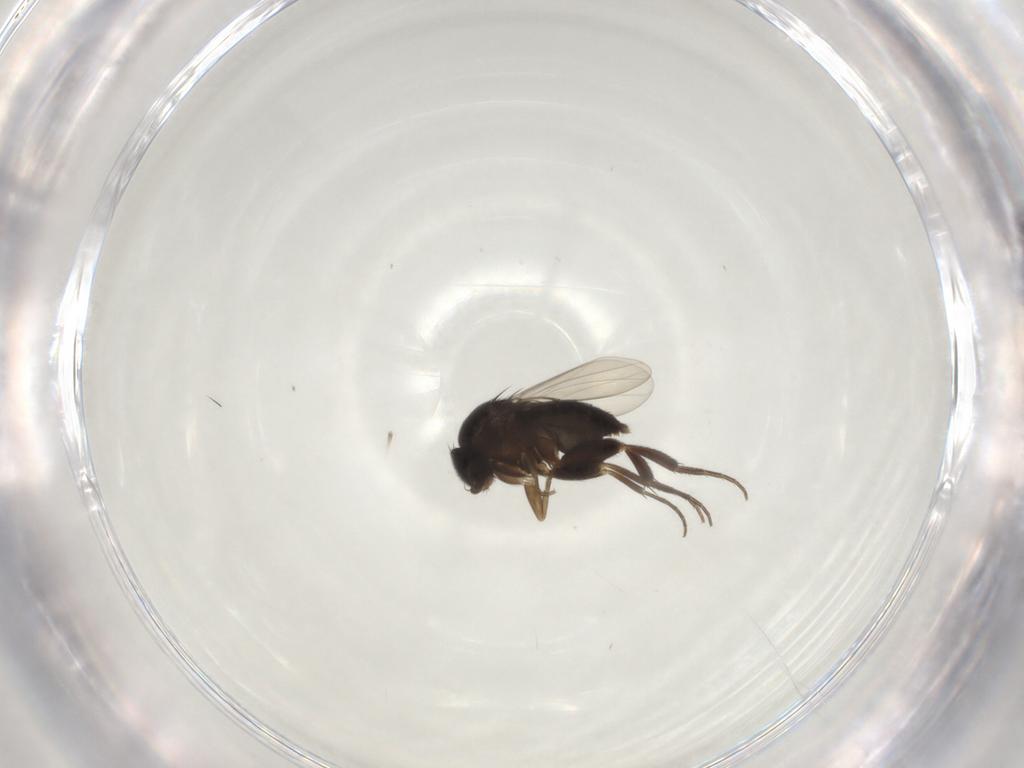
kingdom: Animalia
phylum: Arthropoda
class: Insecta
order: Diptera
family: Phoridae
